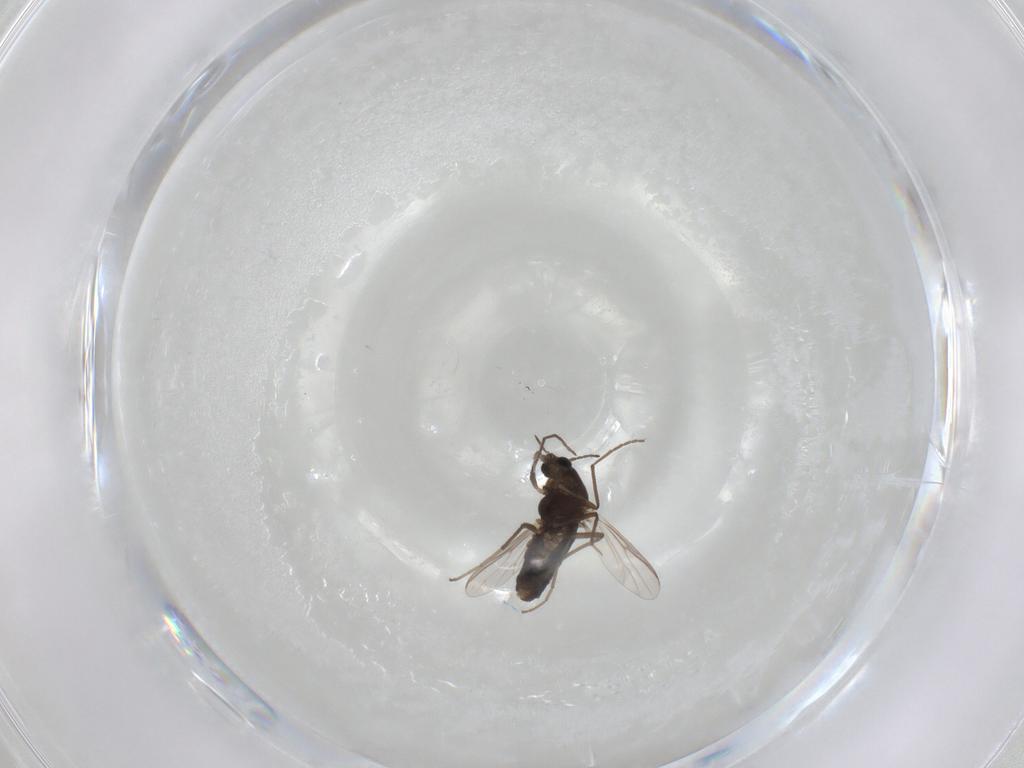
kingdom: Animalia
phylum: Arthropoda
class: Insecta
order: Diptera
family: Chironomidae
